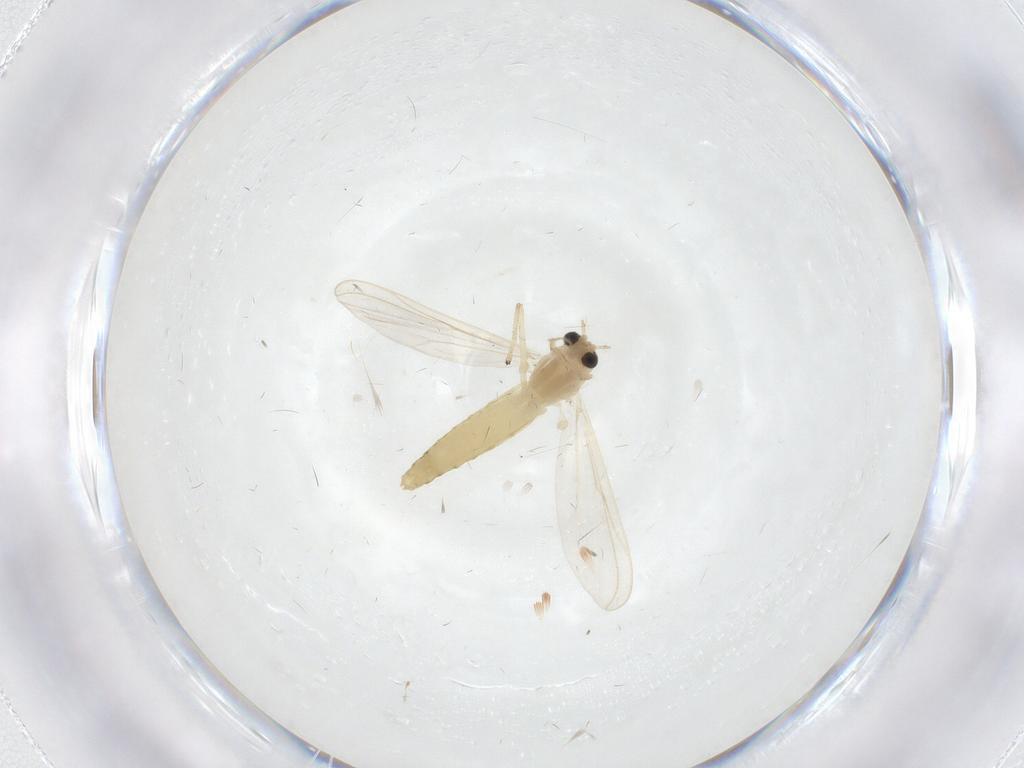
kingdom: Animalia
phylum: Arthropoda
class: Insecta
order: Diptera
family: Chironomidae
